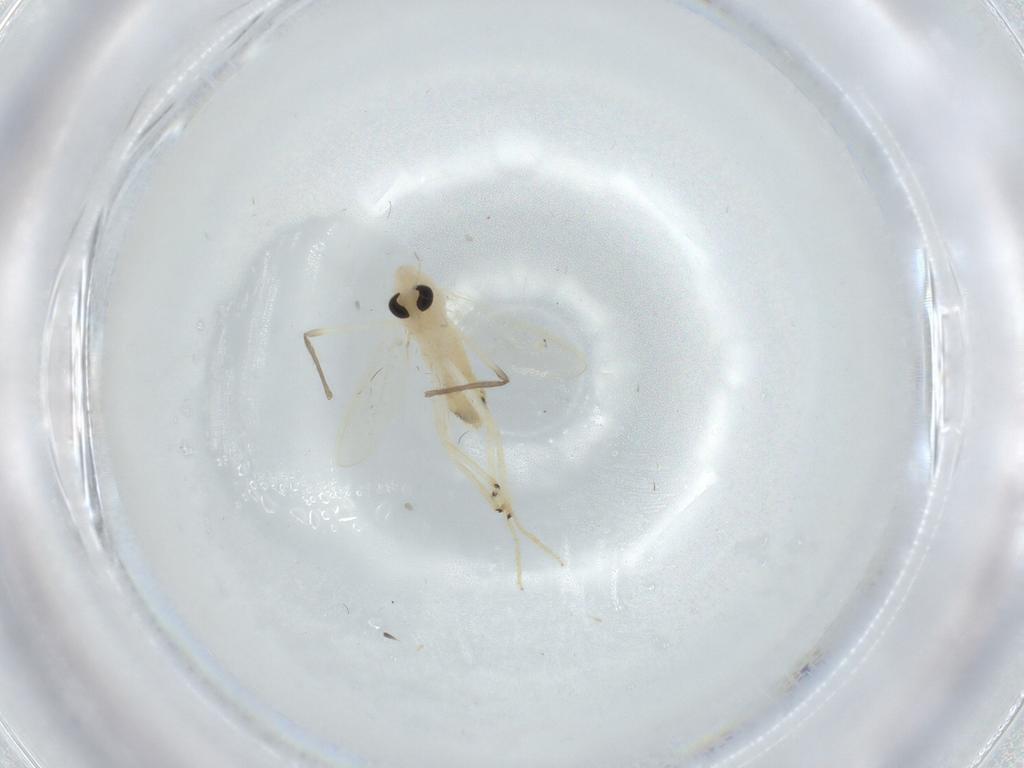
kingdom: Animalia
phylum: Arthropoda
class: Insecta
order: Diptera
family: Chironomidae
